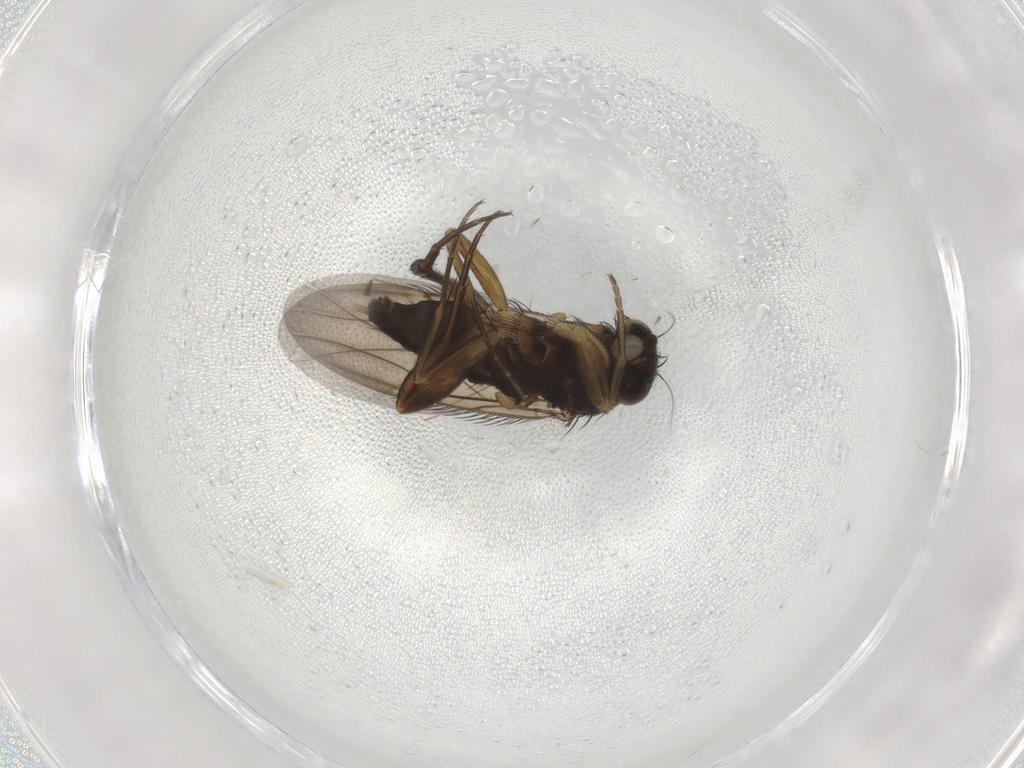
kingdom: Animalia
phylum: Arthropoda
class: Insecta
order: Diptera
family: Phoridae
